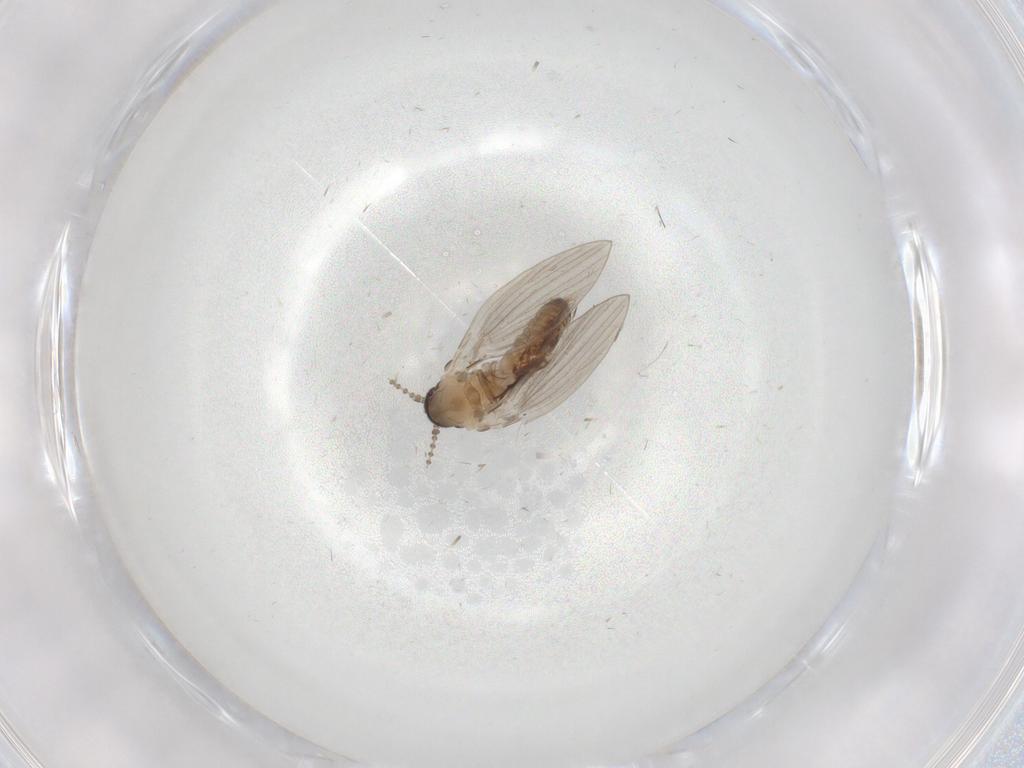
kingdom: Animalia
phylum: Arthropoda
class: Insecta
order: Diptera
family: Psychodidae
